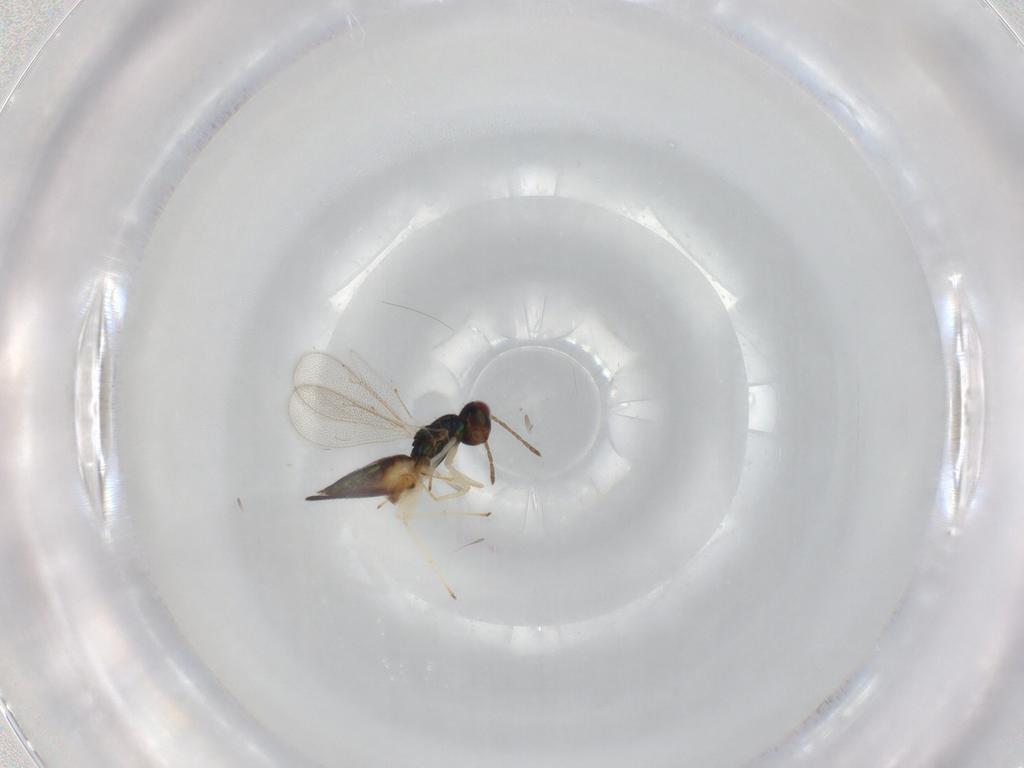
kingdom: Animalia
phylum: Arthropoda
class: Insecta
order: Hymenoptera
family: Eulophidae
